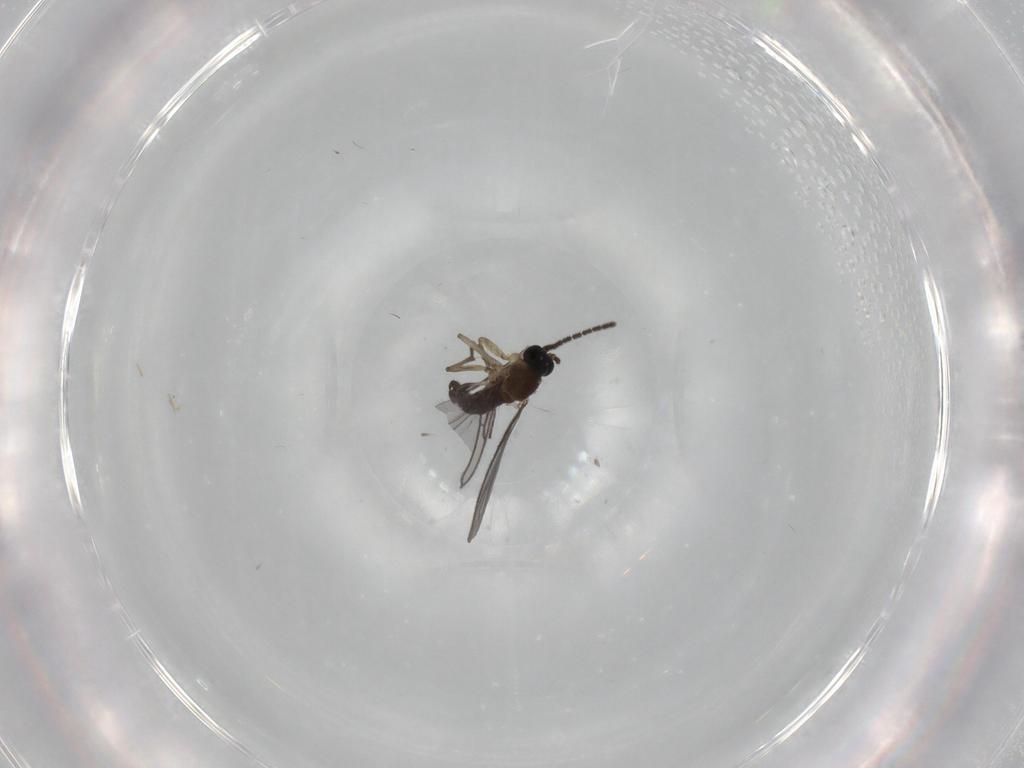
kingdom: Animalia
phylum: Arthropoda
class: Insecta
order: Diptera
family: Sciaridae
